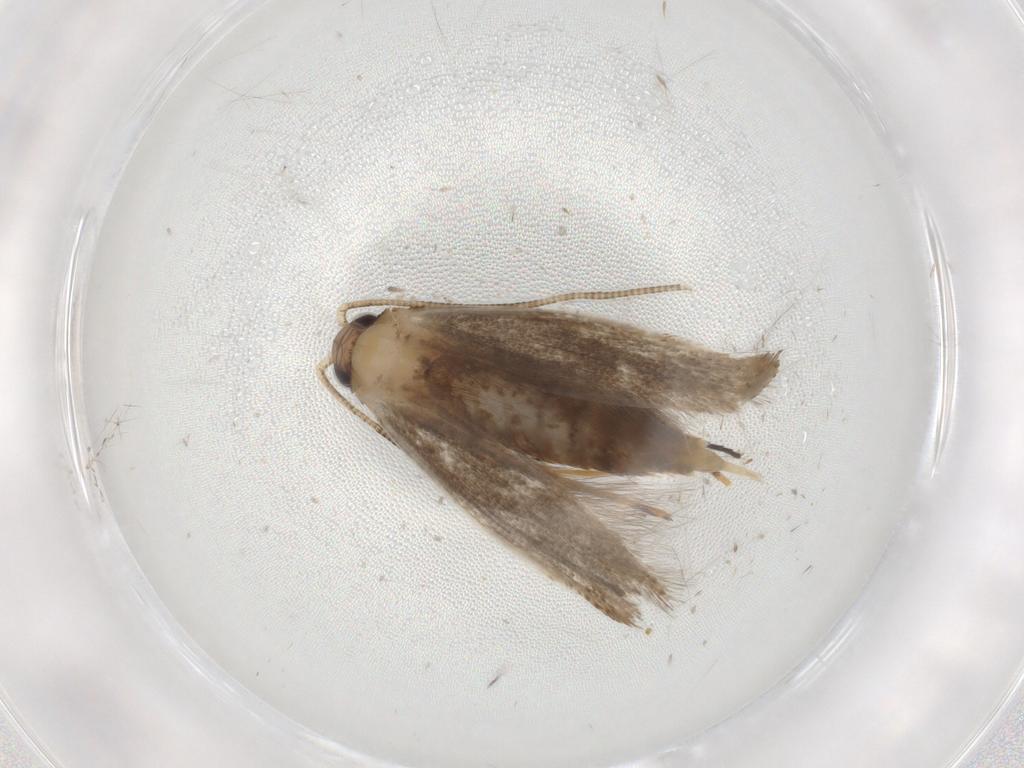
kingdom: Animalia
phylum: Arthropoda
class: Insecta
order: Lepidoptera
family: Tineidae
